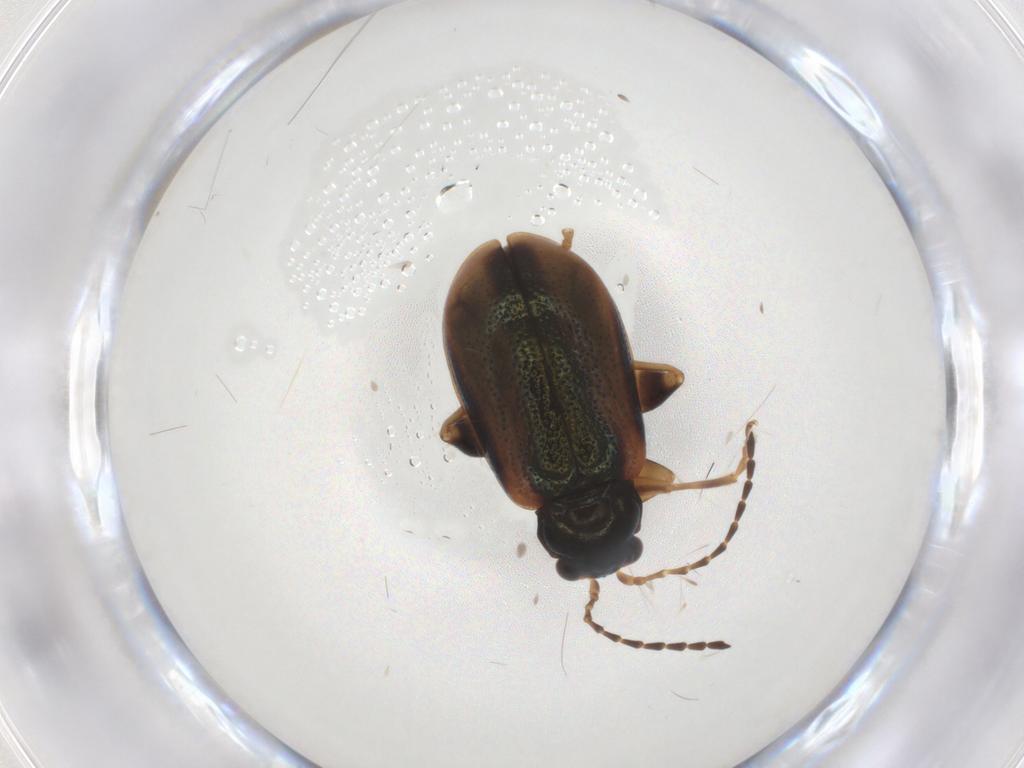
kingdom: Animalia
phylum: Arthropoda
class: Insecta
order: Coleoptera
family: Chrysomelidae
